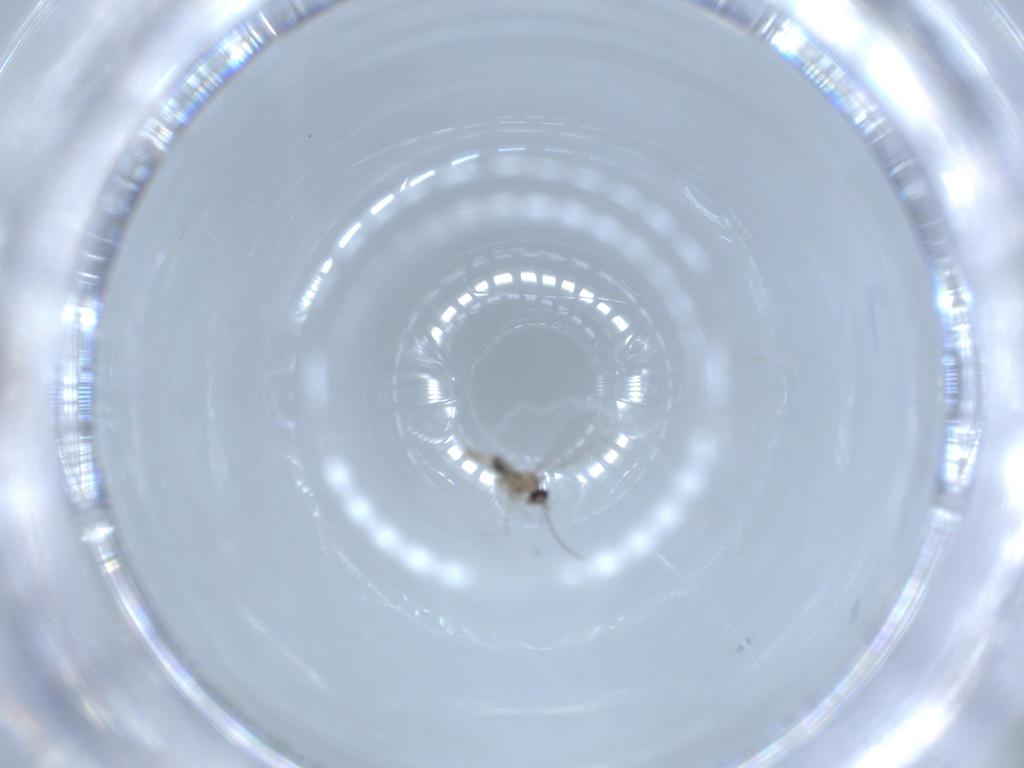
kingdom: Animalia
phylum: Arthropoda
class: Insecta
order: Diptera
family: Cecidomyiidae
